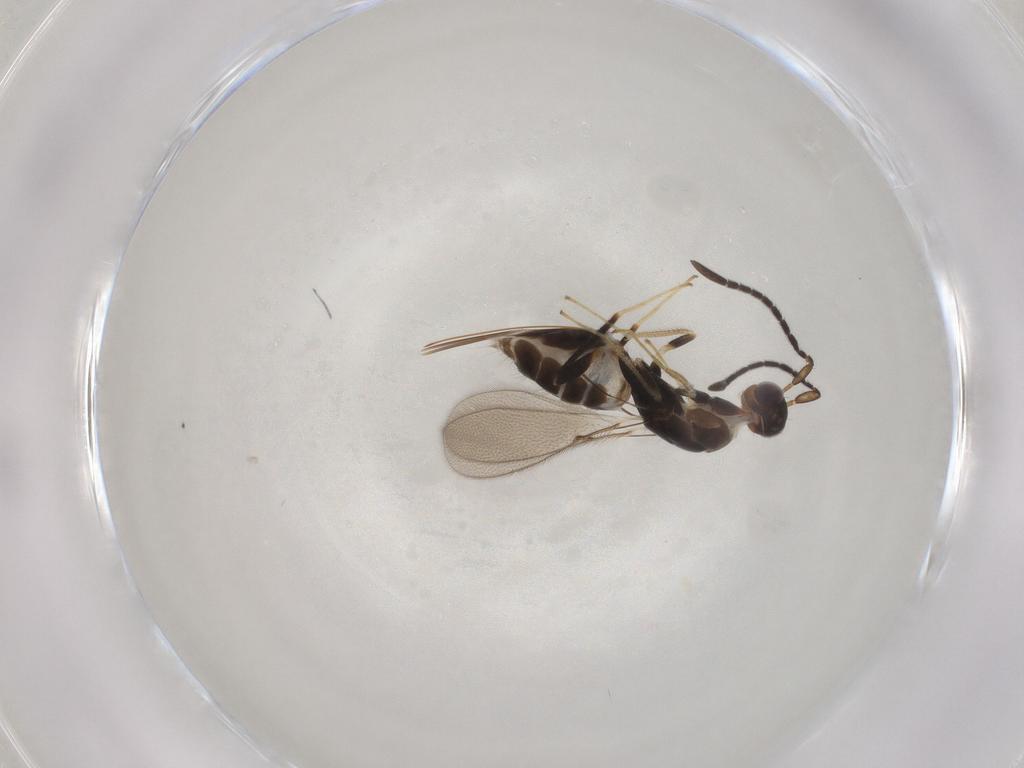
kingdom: Animalia
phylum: Arthropoda
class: Insecta
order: Hymenoptera
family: Mymaridae
